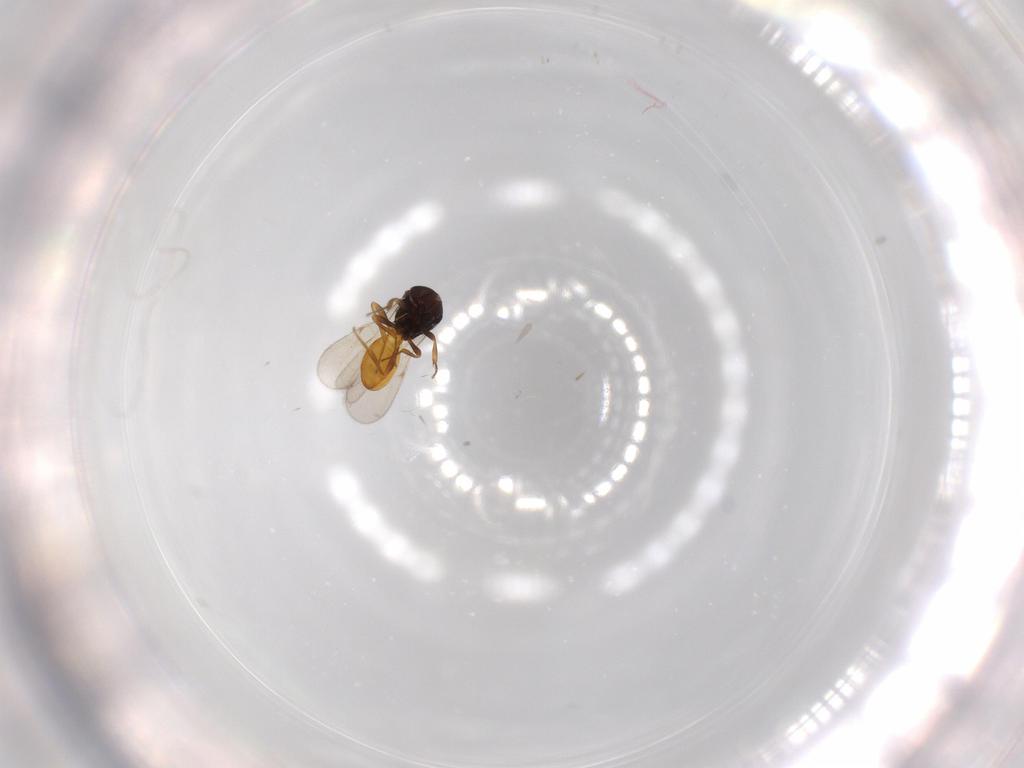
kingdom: Animalia
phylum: Arthropoda
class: Insecta
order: Hymenoptera
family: Scelionidae
